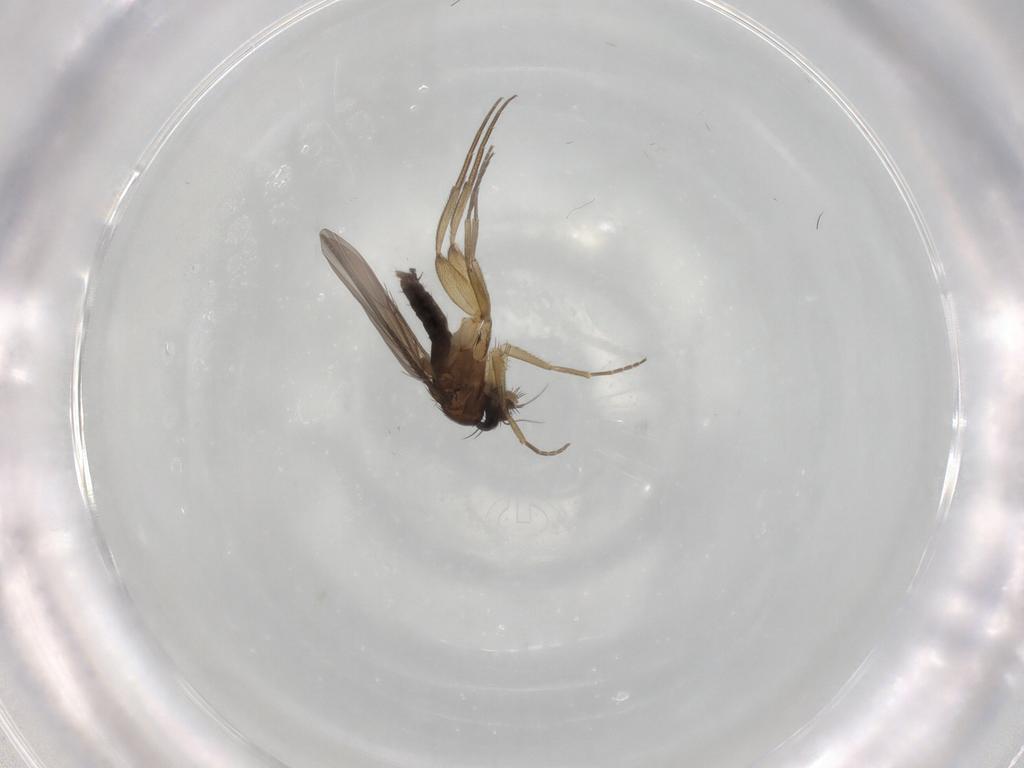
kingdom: Animalia
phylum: Arthropoda
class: Insecta
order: Diptera
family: Phoridae
